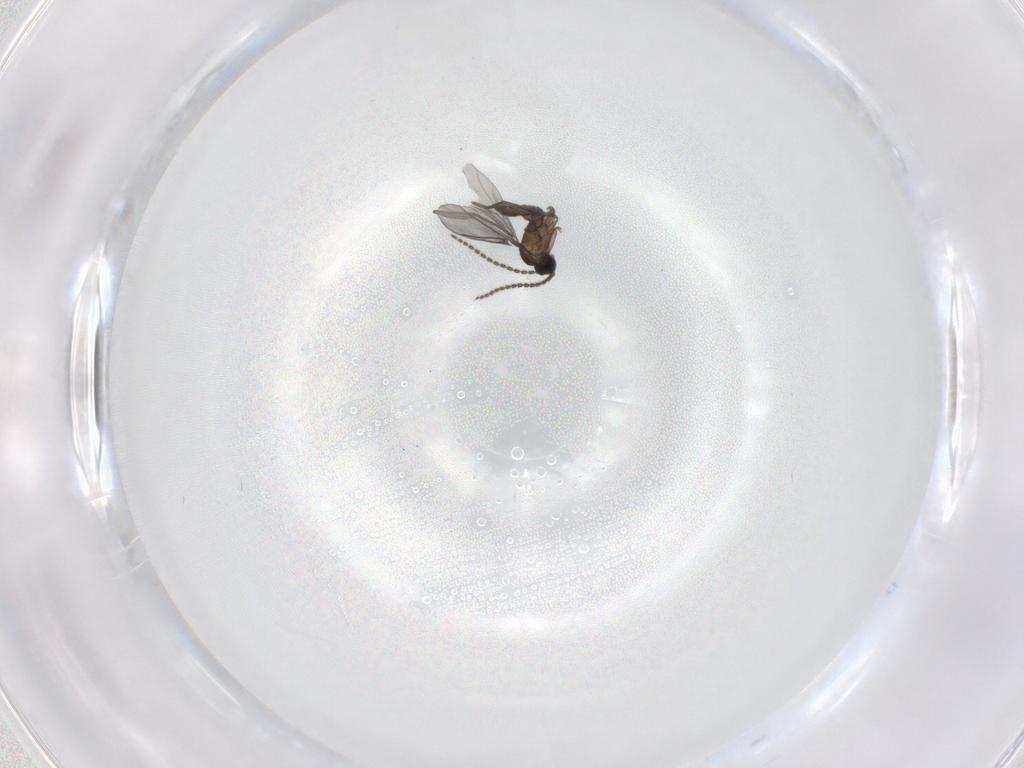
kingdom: Animalia
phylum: Arthropoda
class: Insecta
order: Diptera
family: Sciaridae
